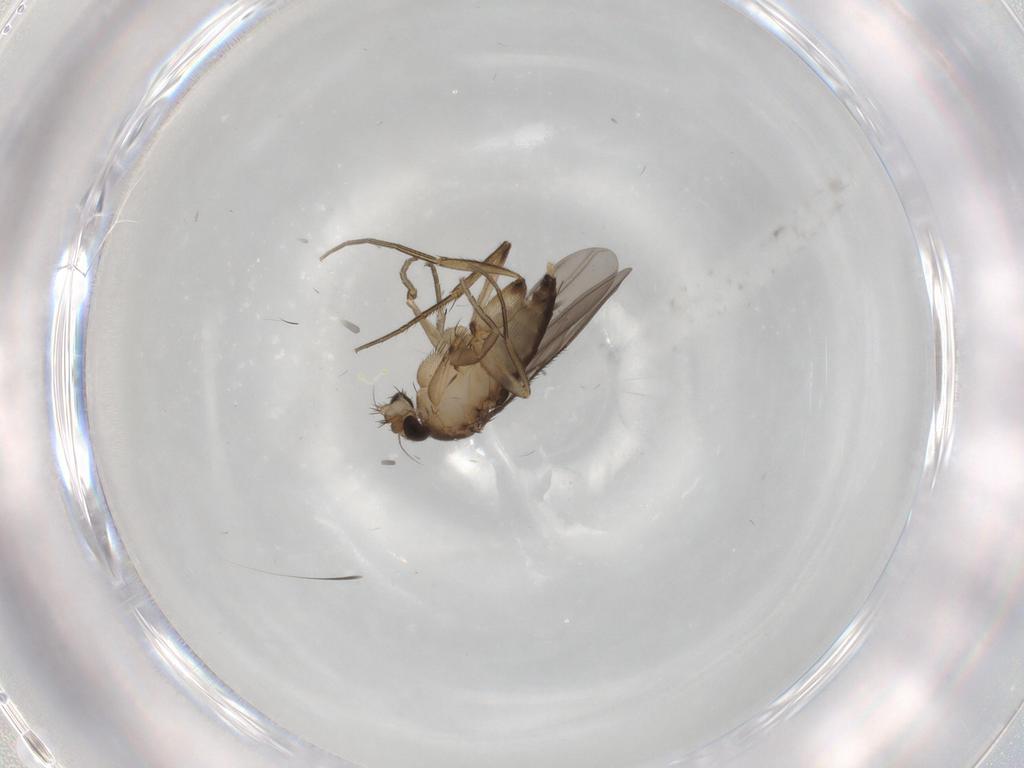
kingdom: Animalia
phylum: Arthropoda
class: Insecta
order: Diptera
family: Phoridae
